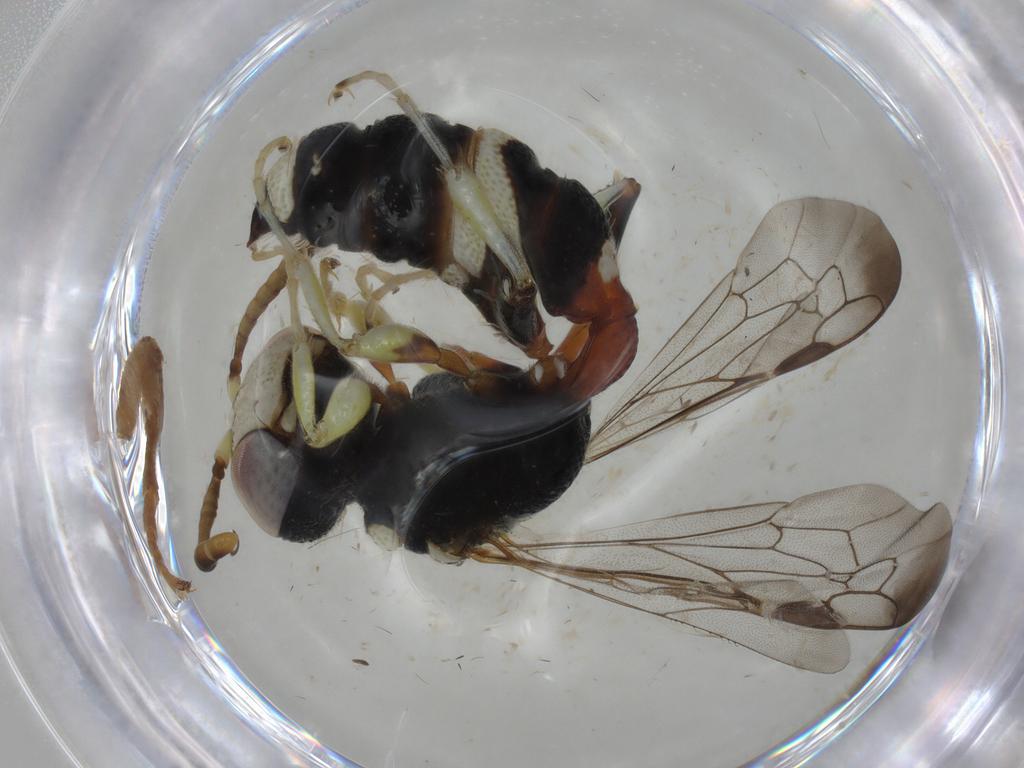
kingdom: Animalia
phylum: Arthropoda
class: Insecta
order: Hymenoptera
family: Crabronidae
